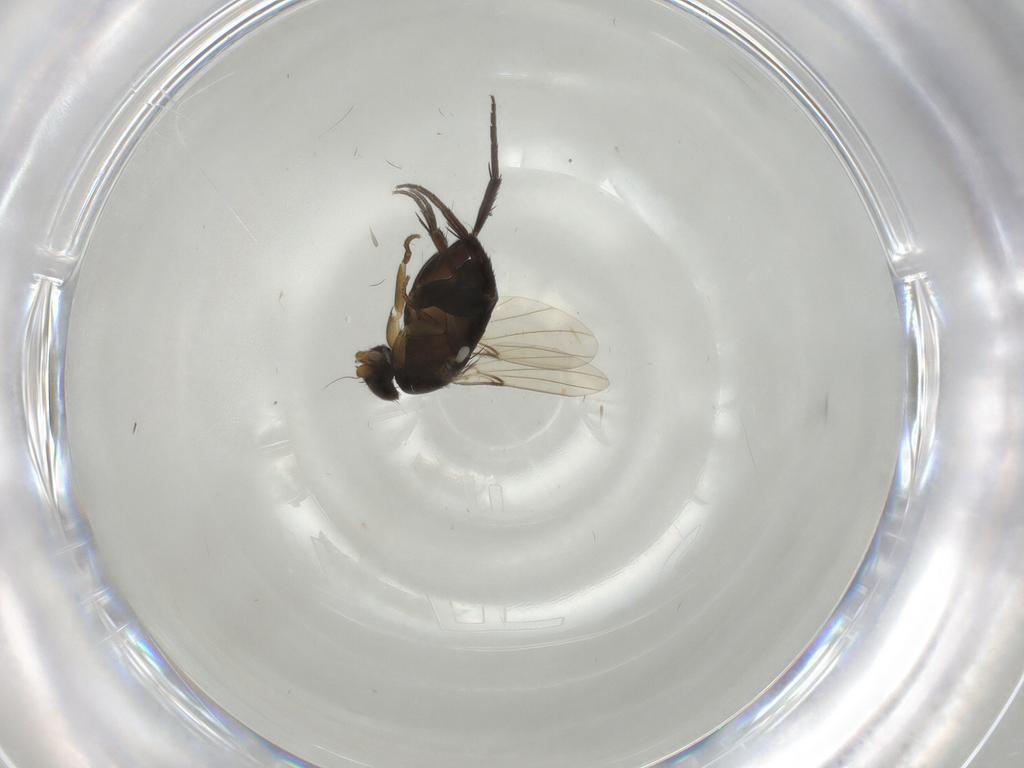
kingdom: Animalia
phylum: Arthropoda
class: Insecta
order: Diptera
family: Phoridae
